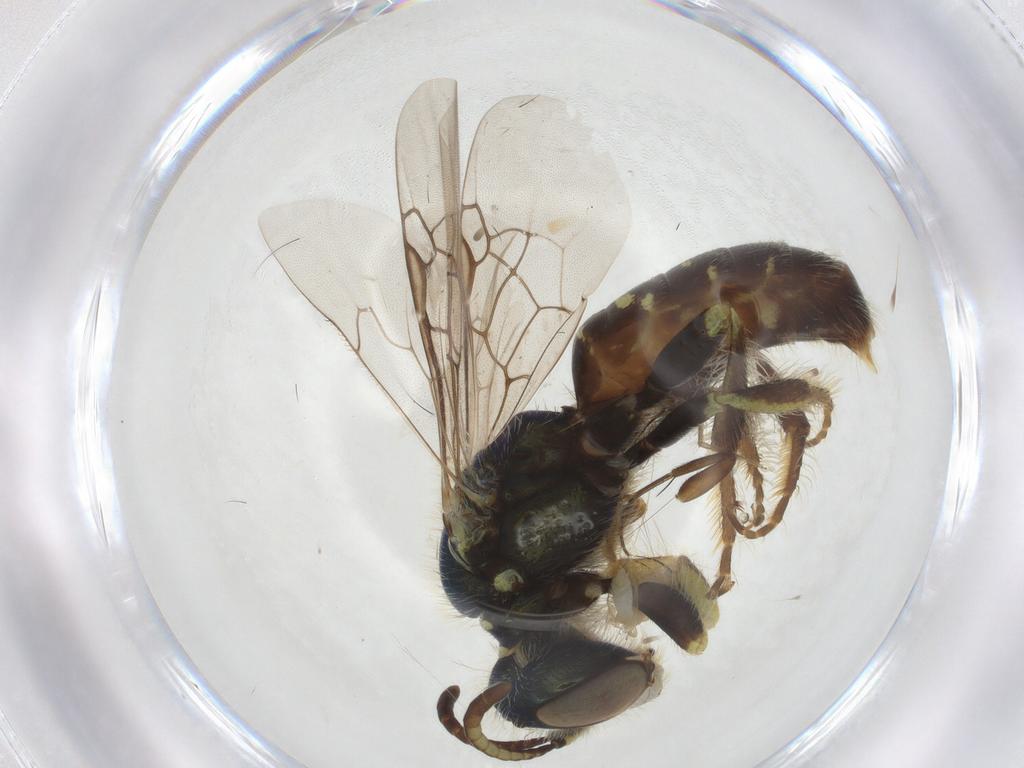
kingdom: Animalia
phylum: Arthropoda
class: Insecta
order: Hymenoptera
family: Andrenidae
